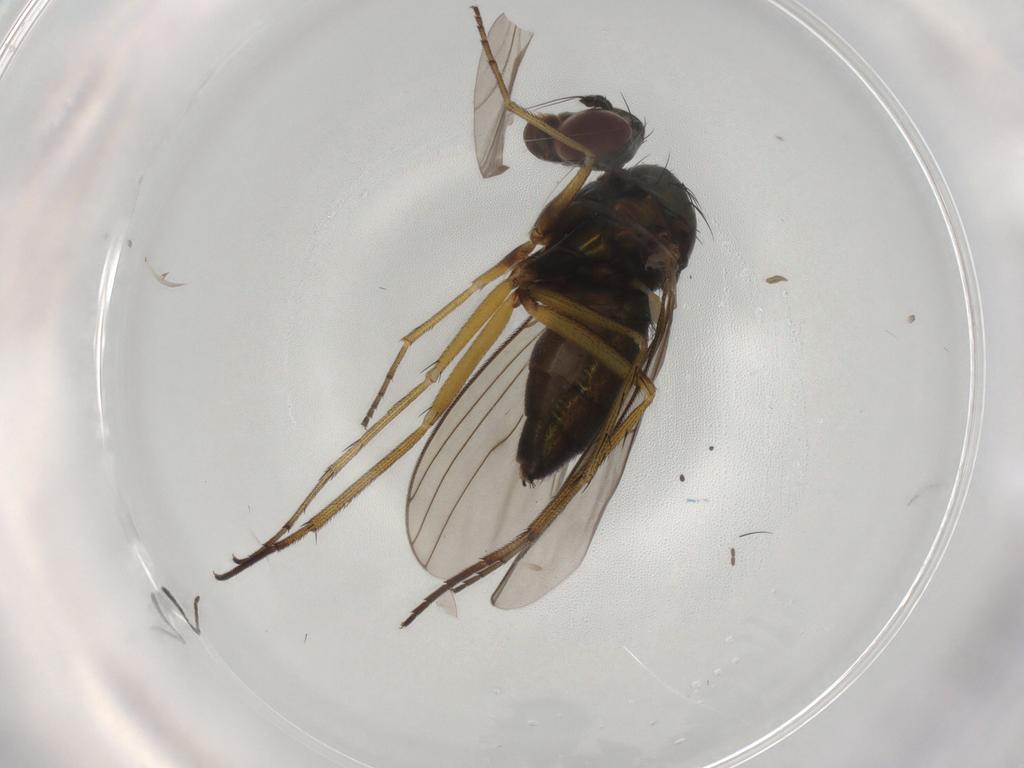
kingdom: Animalia
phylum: Arthropoda
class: Insecta
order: Diptera
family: Dolichopodidae
